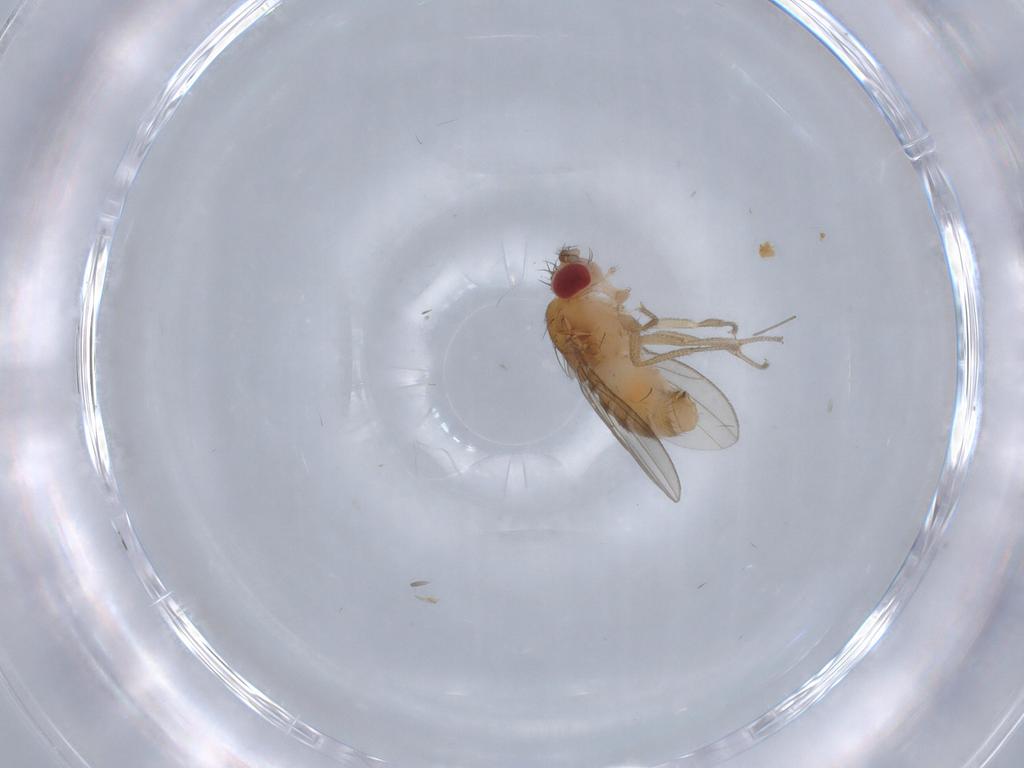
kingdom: Animalia
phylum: Arthropoda
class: Insecta
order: Diptera
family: Drosophilidae
